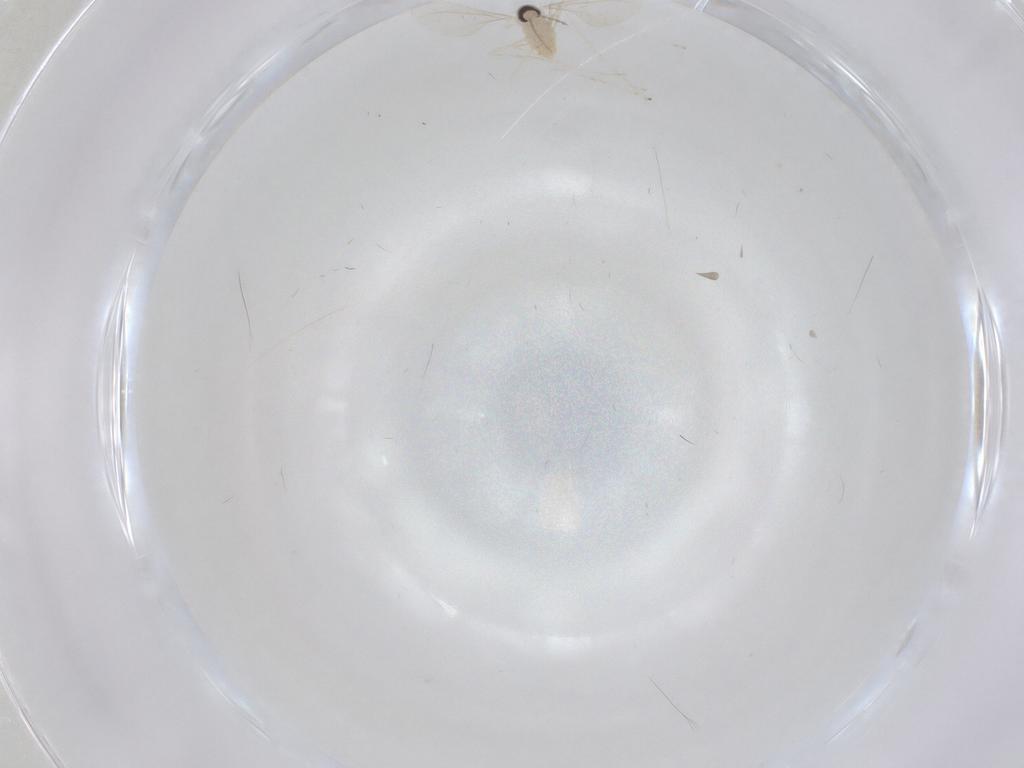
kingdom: Animalia
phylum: Arthropoda
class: Insecta
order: Diptera
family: Cecidomyiidae
